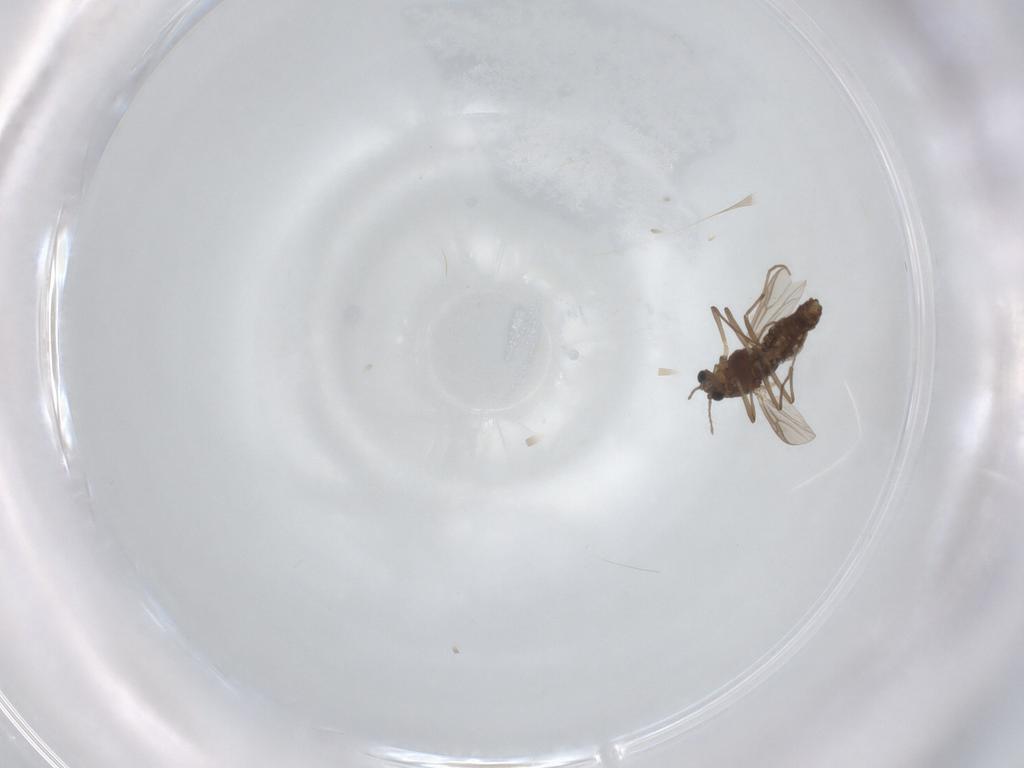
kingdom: Animalia
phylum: Arthropoda
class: Insecta
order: Diptera
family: Chironomidae
